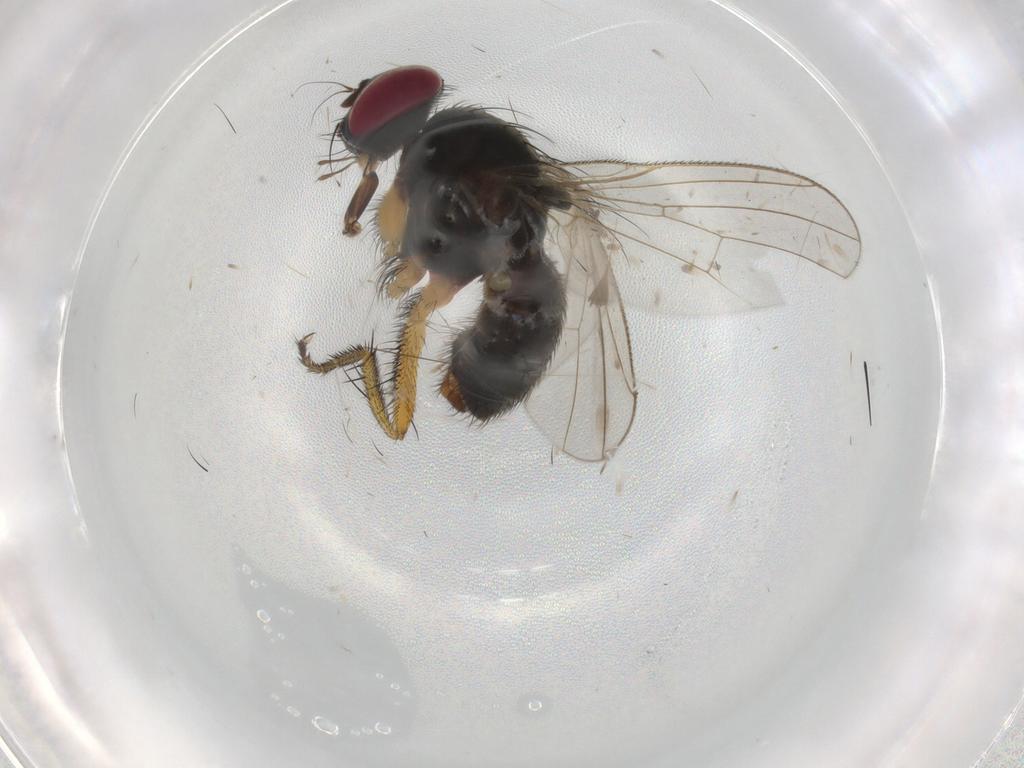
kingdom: Animalia
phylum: Arthropoda
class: Insecta
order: Diptera
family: Muscidae
